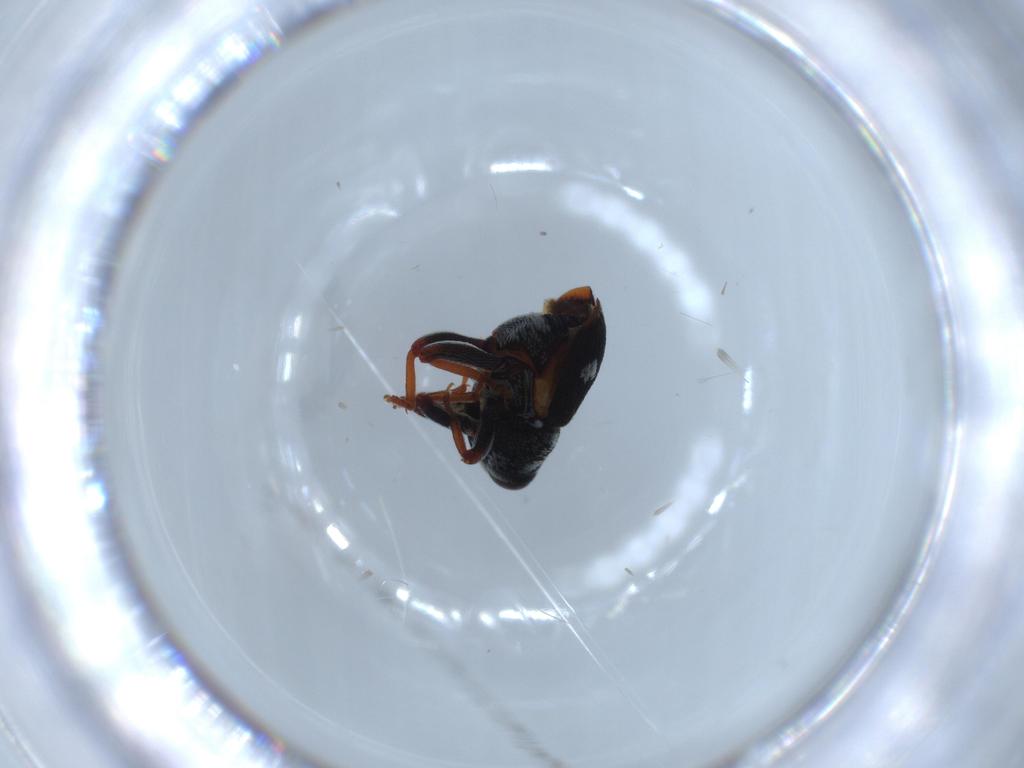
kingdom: Animalia
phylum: Arthropoda
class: Insecta
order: Coleoptera
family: Curculionidae
